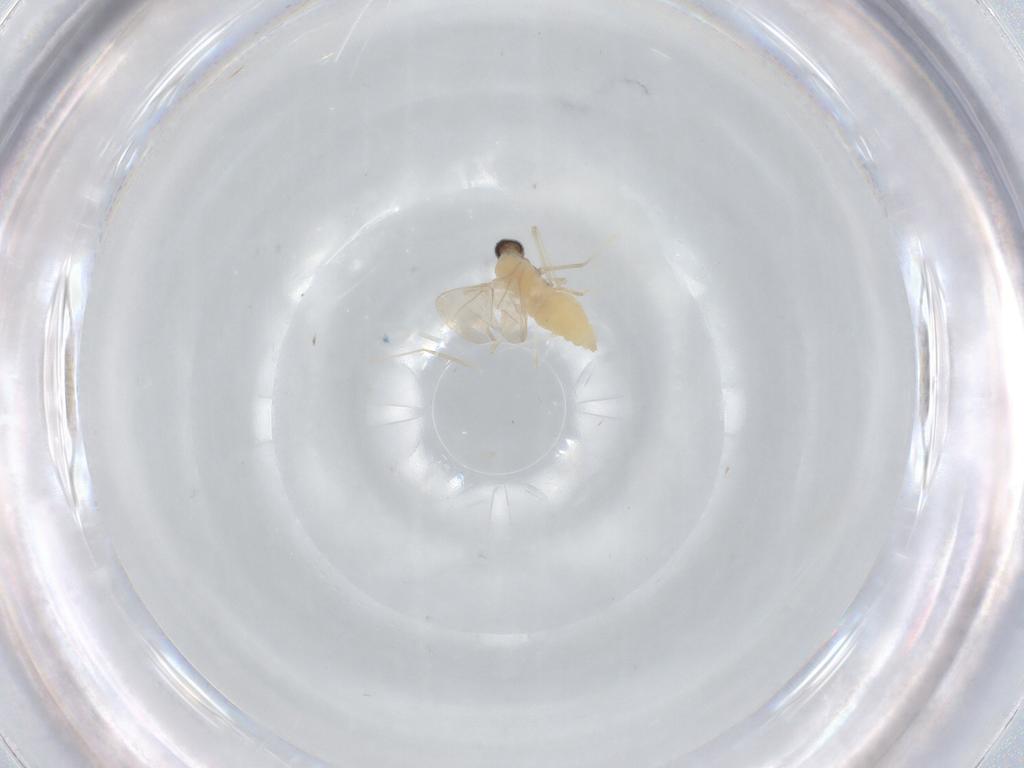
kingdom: Animalia
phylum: Arthropoda
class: Insecta
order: Diptera
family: Cecidomyiidae
